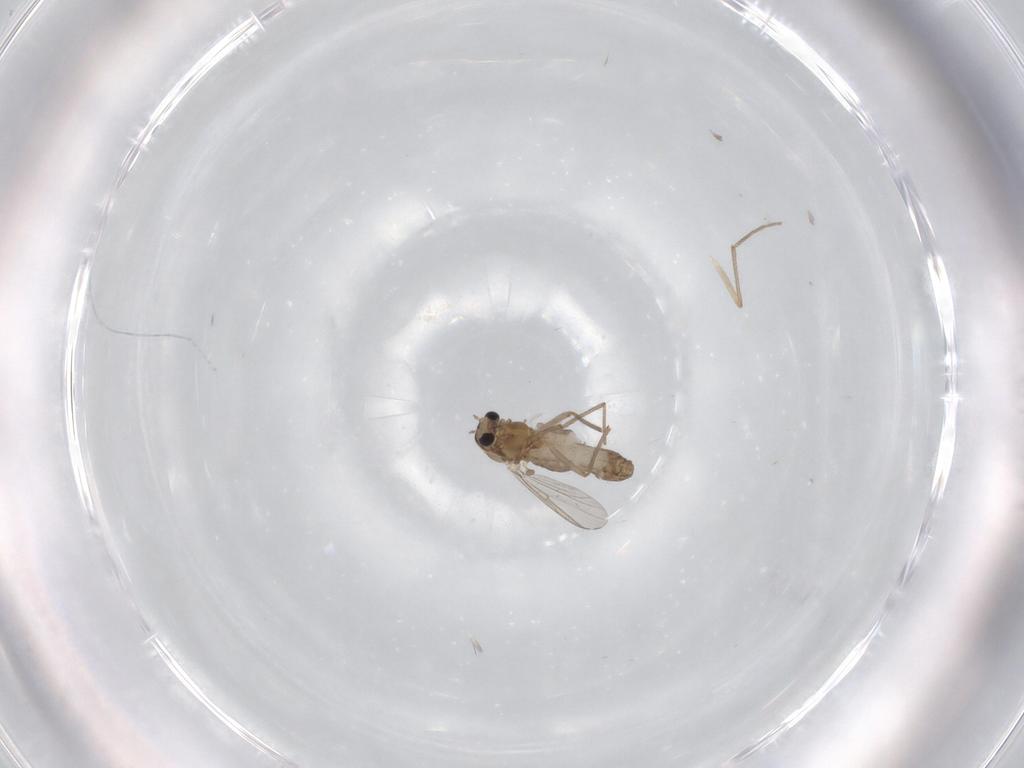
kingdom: Animalia
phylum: Arthropoda
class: Insecta
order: Diptera
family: Chironomidae
